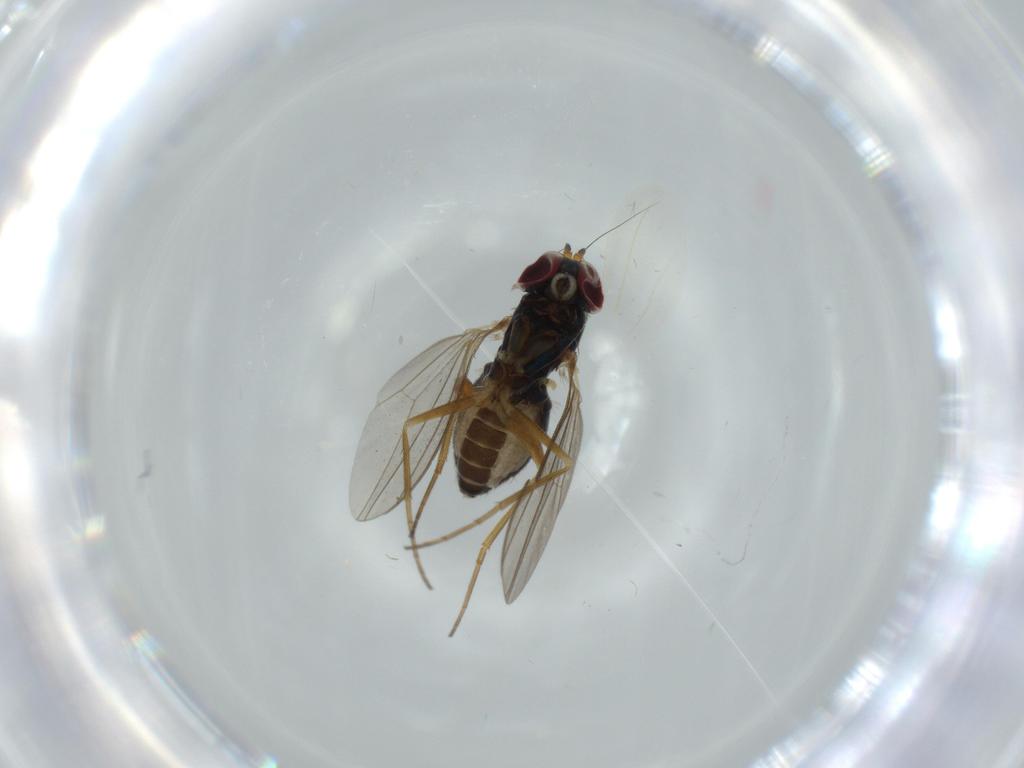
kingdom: Animalia
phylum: Arthropoda
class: Insecta
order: Diptera
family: Dolichopodidae
